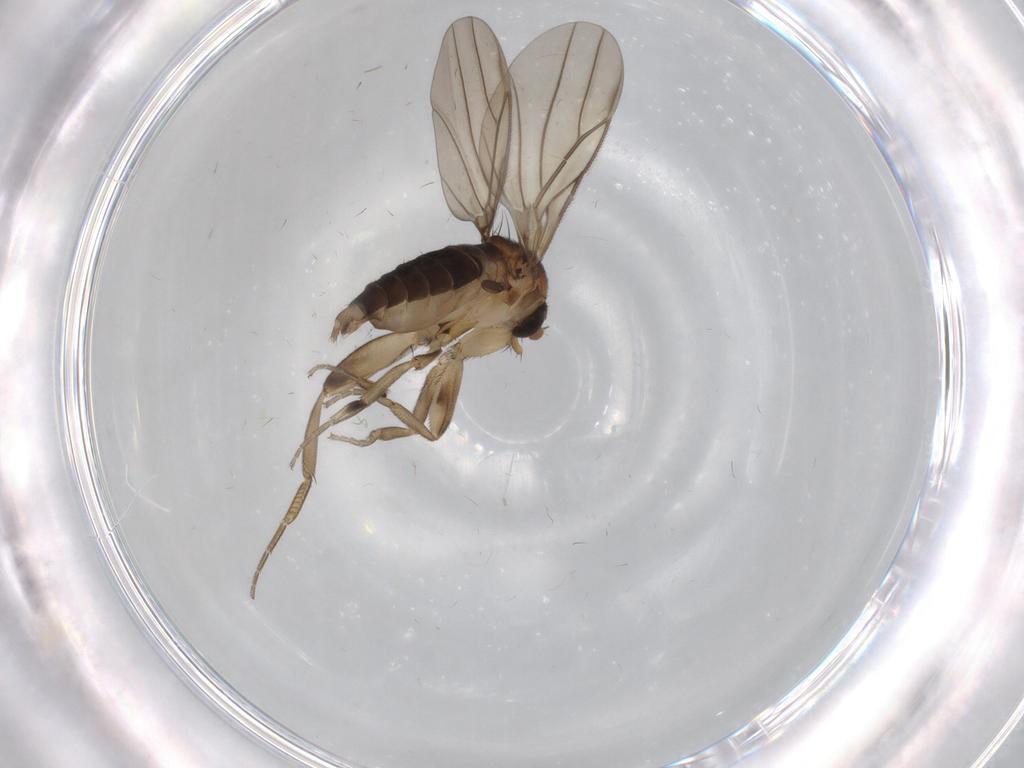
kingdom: Animalia
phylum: Arthropoda
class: Insecta
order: Diptera
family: Phoridae
